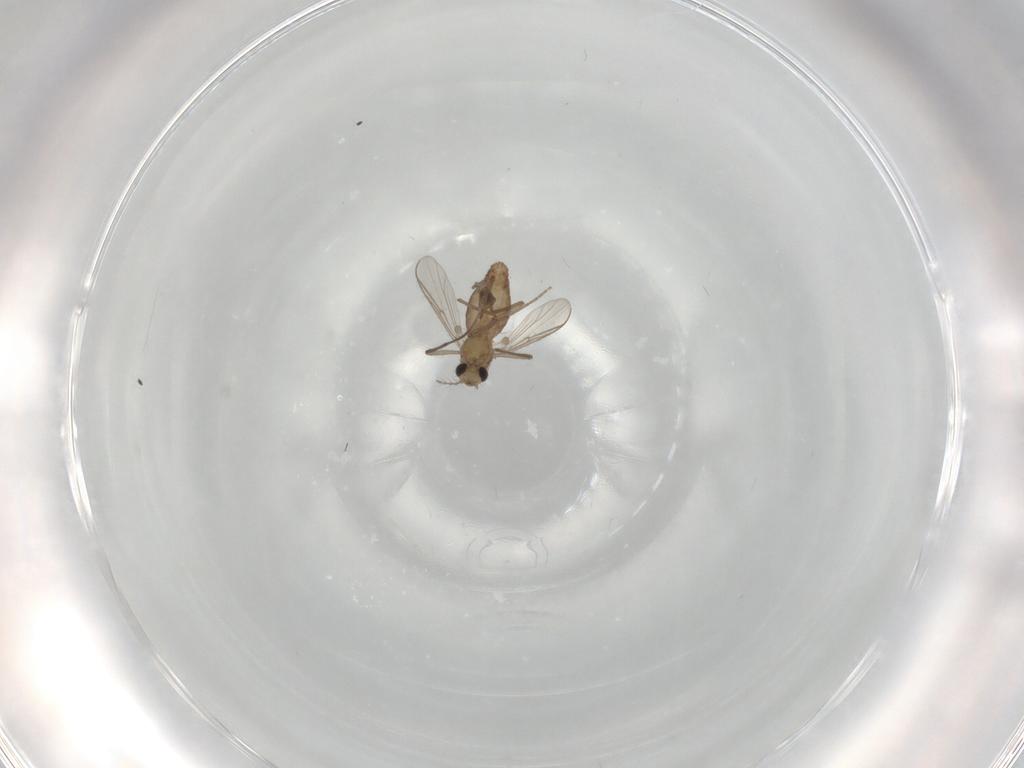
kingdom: Animalia
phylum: Arthropoda
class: Insecta
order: Diptera
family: Chironomidae
